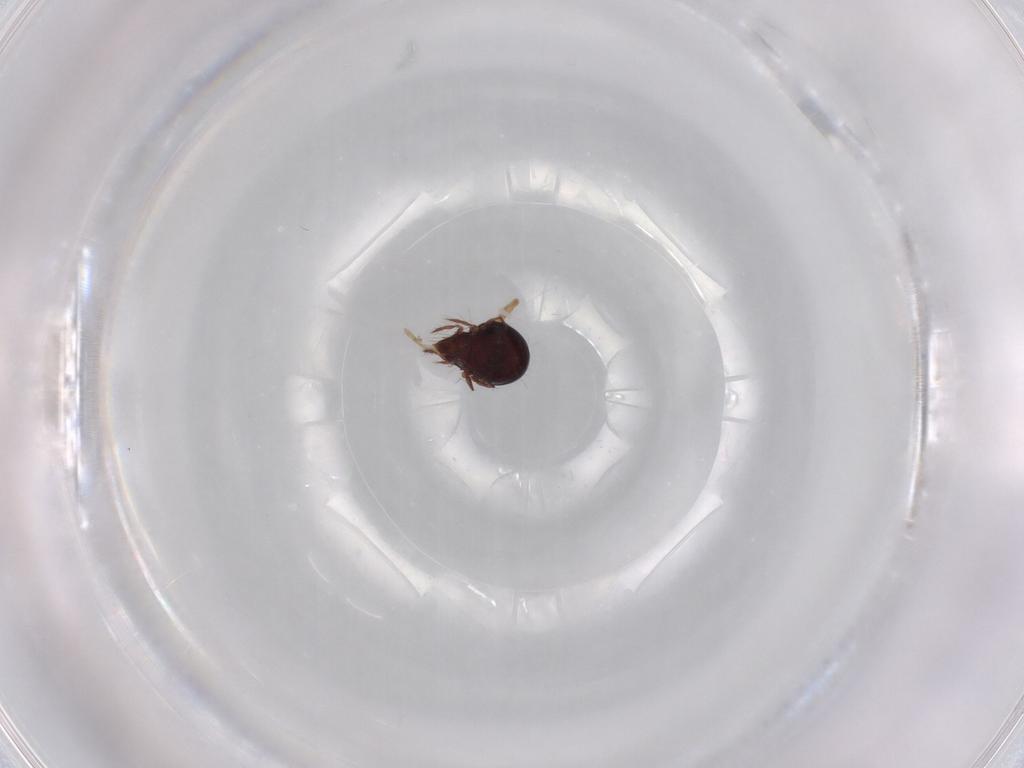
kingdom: Animalia
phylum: Arthropoda
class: Arachnida
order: Sarcoptiformes
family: Ceratoppiidae
